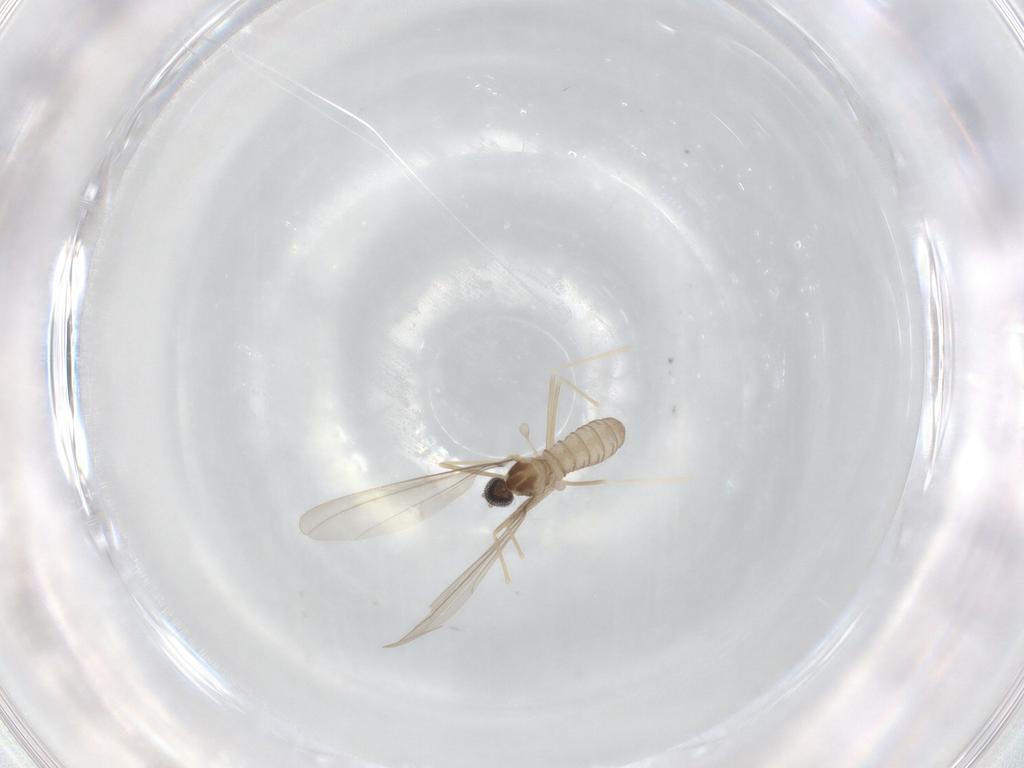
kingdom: Animalia
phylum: Arthropoda
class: Insecta
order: Diptera
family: Cecidomyiidae
